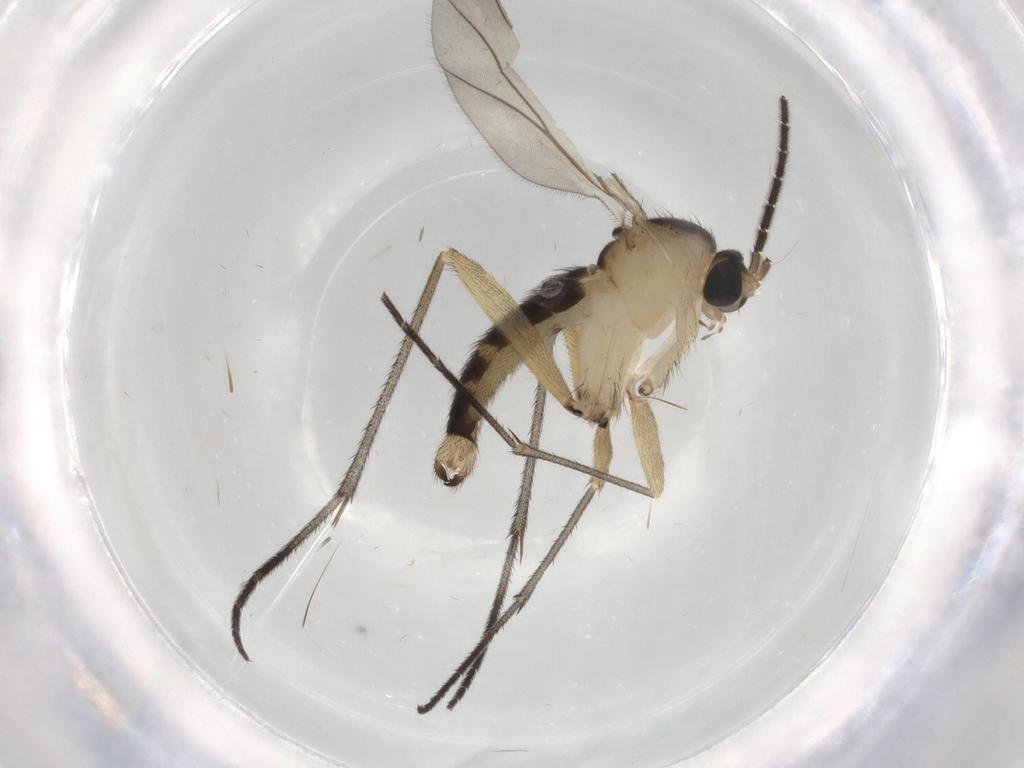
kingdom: Animalia
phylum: Arthropoda
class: Insecta
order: Diptera
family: Sciaridae
